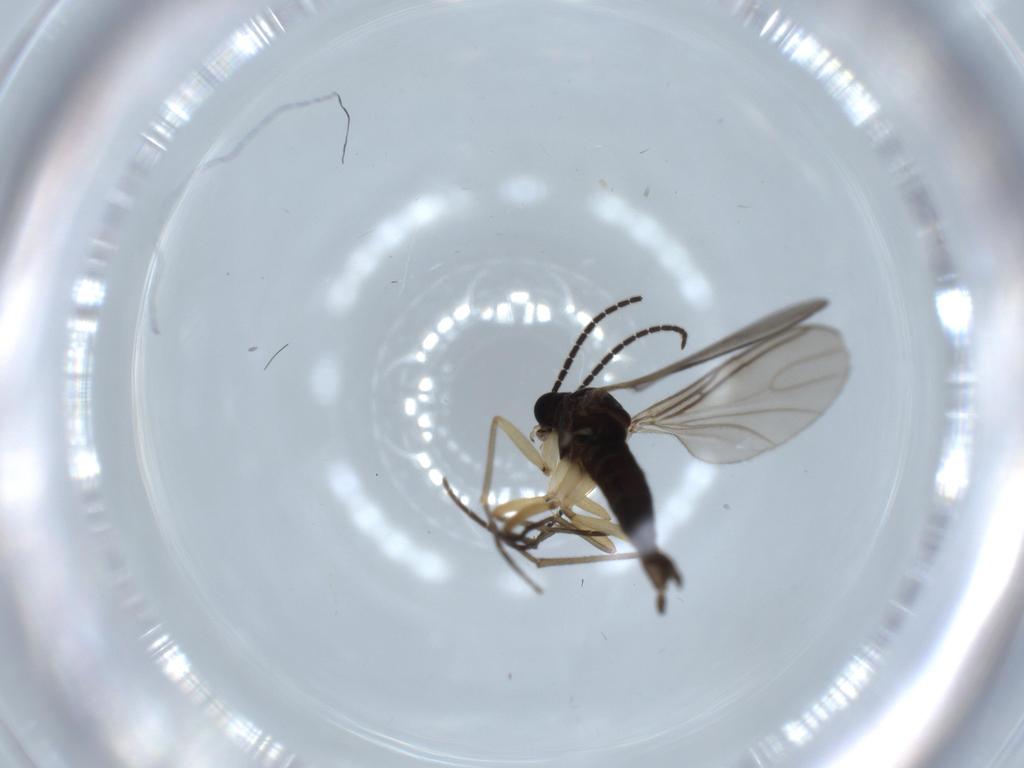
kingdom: Animalia
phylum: Arthropoda
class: Insecta
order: Diptera
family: Sciaridae
